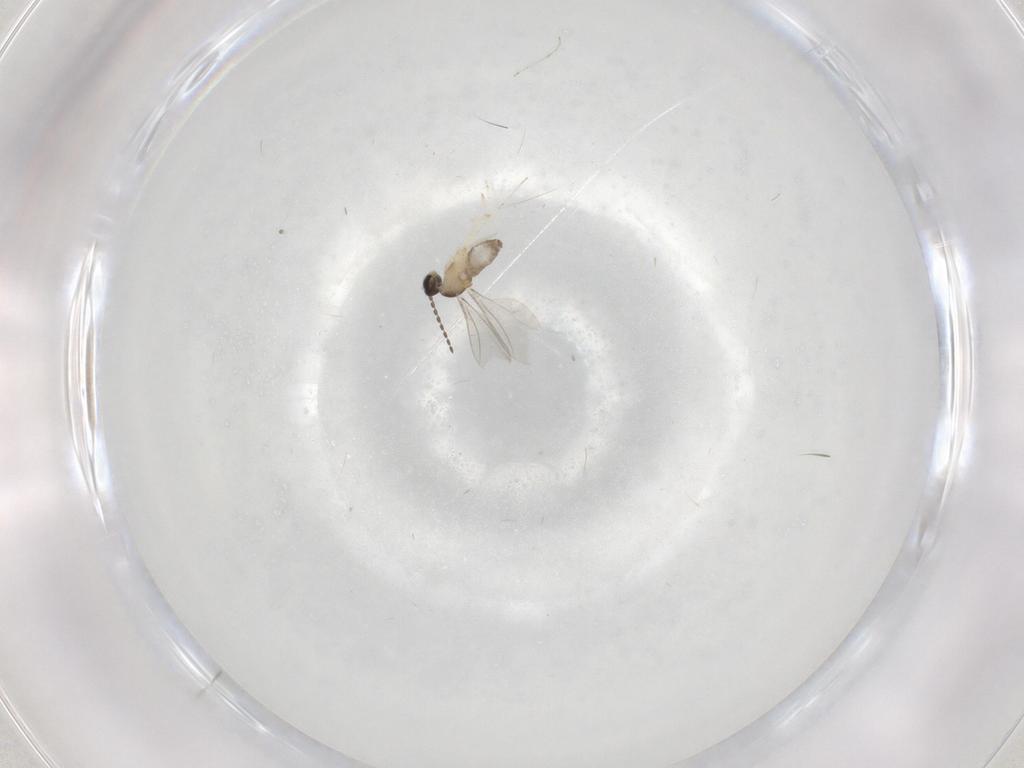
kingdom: Animalia
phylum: Arthropoda
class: Insecta
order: Diptera
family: Cecidomyiidae
